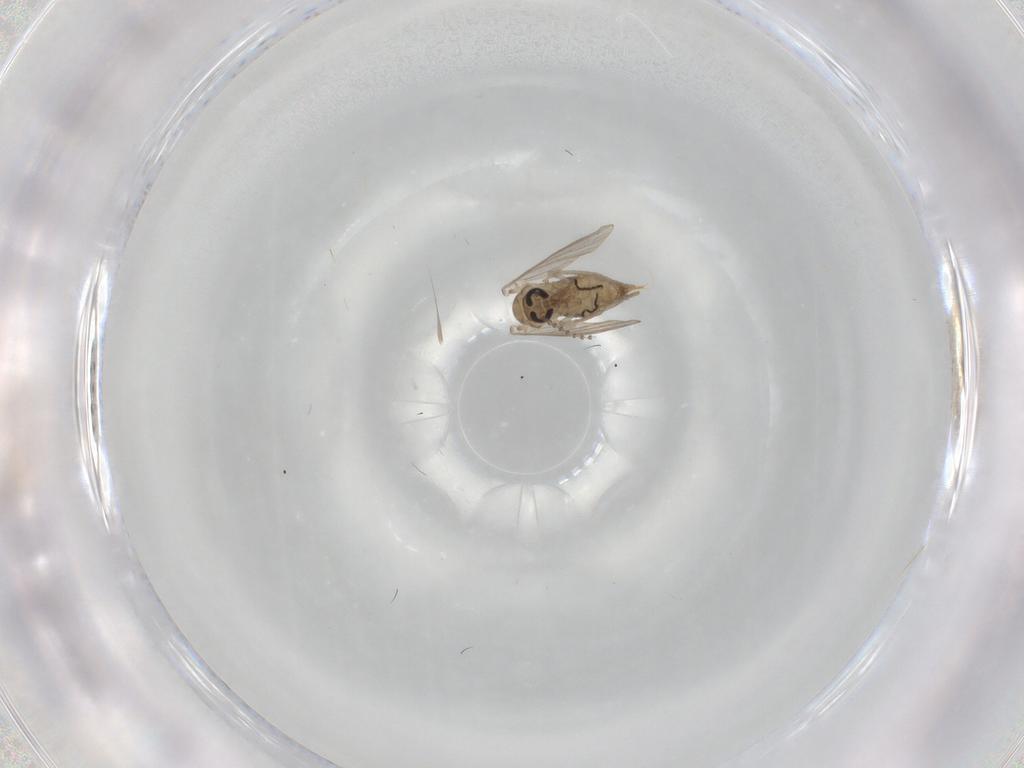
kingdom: Animalia
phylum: Arthropoda
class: Insecta
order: Diptera
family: Psychodidae
